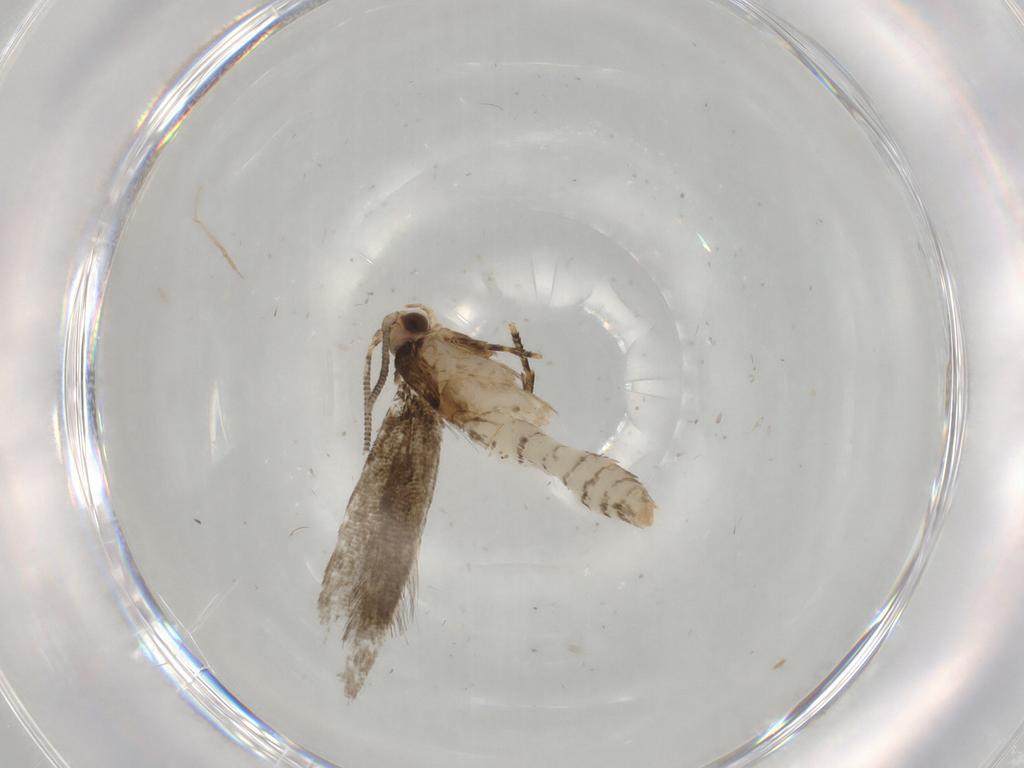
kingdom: Animalia
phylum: Arthropoda
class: Insecta
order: Lepidoptera
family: Tineidae
